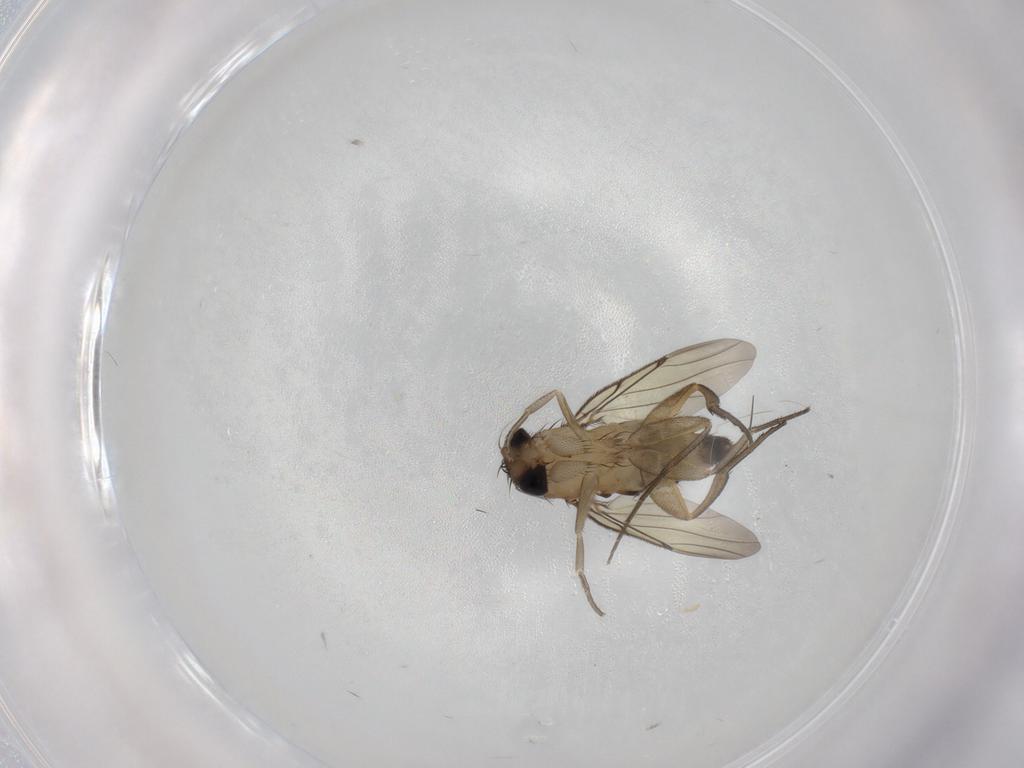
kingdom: Animalia
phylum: Arthropoda
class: Insecta
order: Diptera
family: Phoridae
